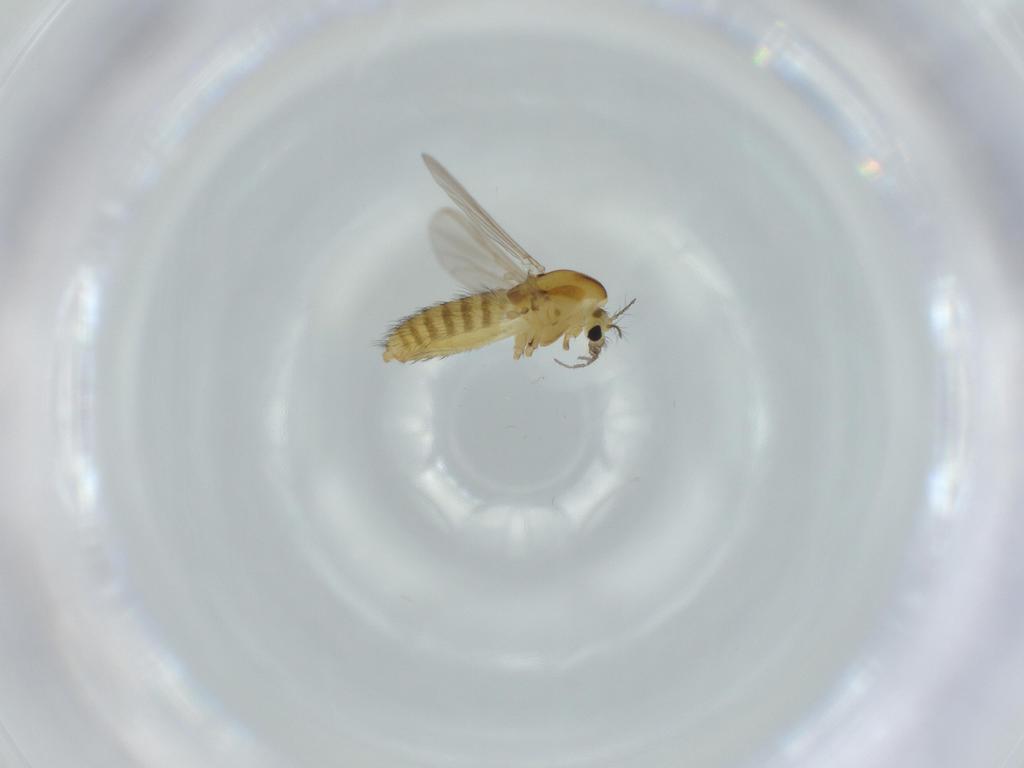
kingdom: Animalia
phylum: Arthropoda
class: Insecta
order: Diptera
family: Chironomidae
